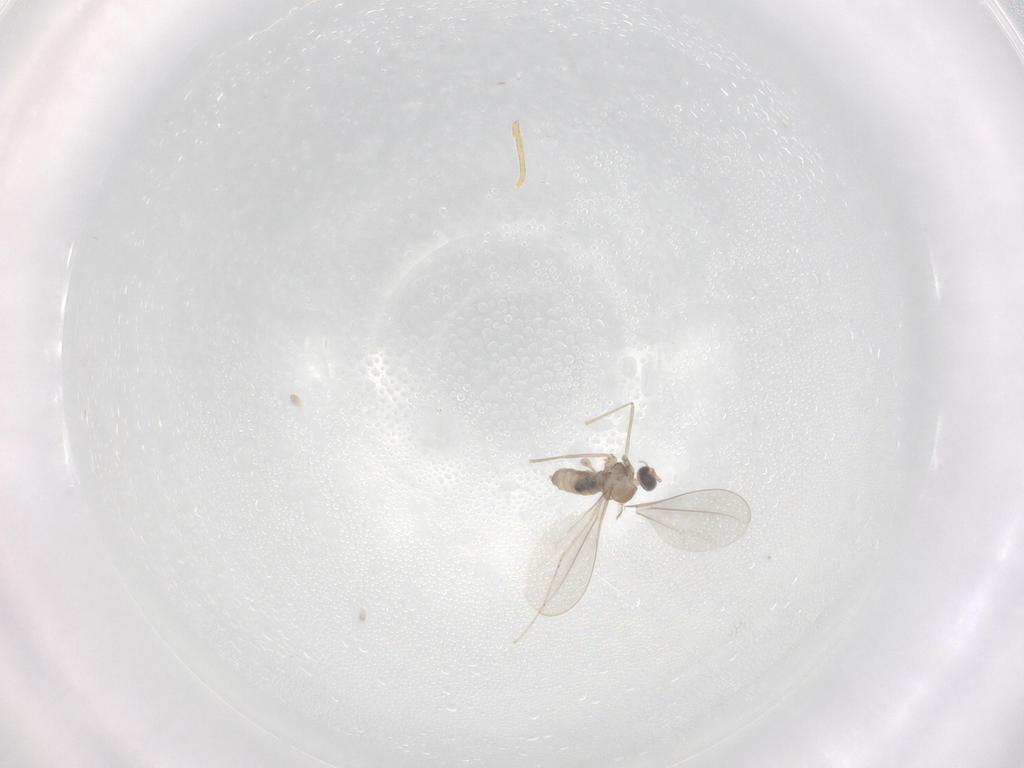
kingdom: Animalia
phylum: Arthropoda
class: Insecta
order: Diptera
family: Cecidomyiidae
